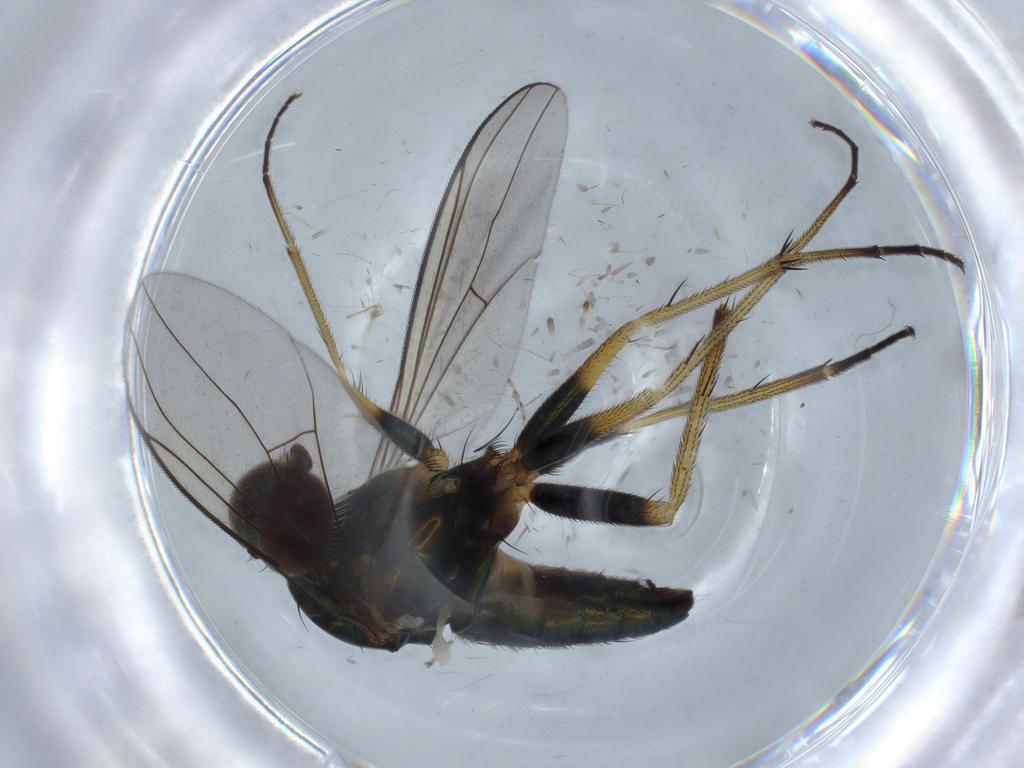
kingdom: Animalia
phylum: Arthropoda
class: Insecta
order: Diptera
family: Dolichopodidae
